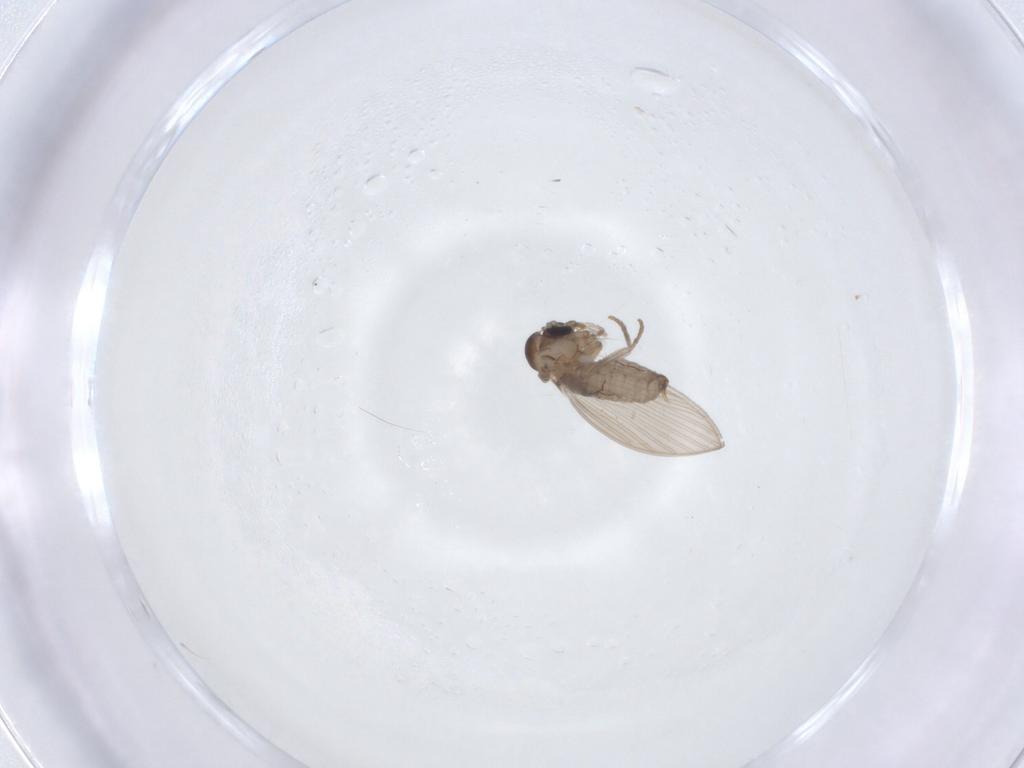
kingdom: Animalia
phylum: Arthropoda
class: Insecta
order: Diptera
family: Psychodidae
